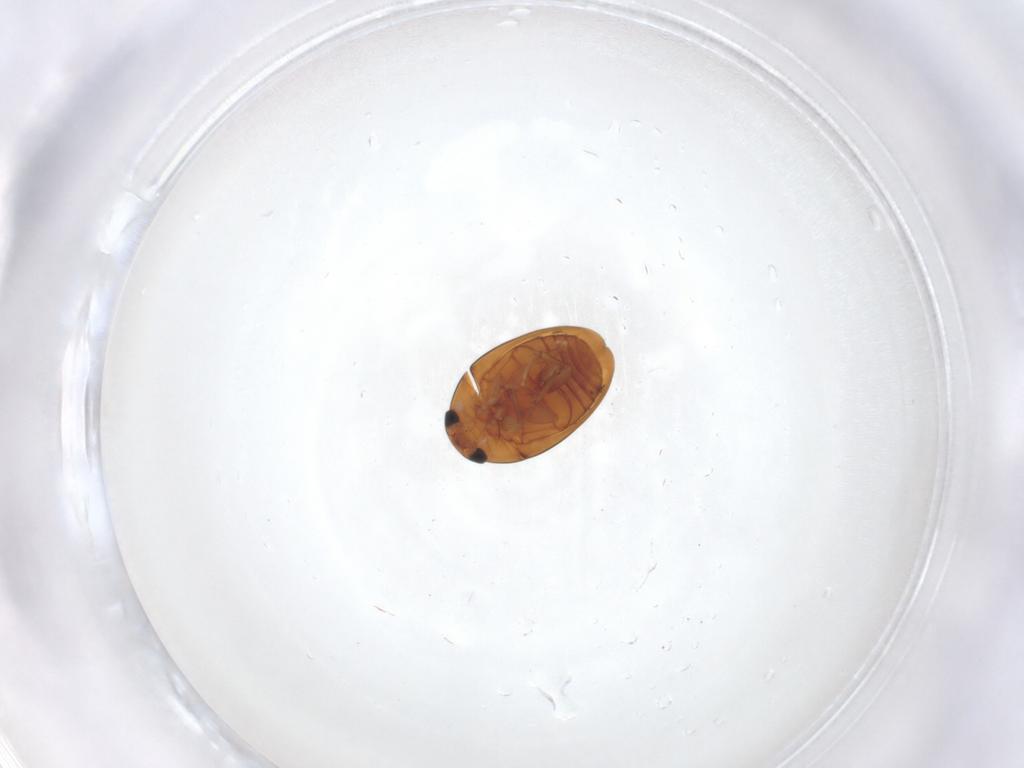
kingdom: Animalia
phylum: Arthropoda
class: Insecta
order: Coleoptera
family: Phalacridae
